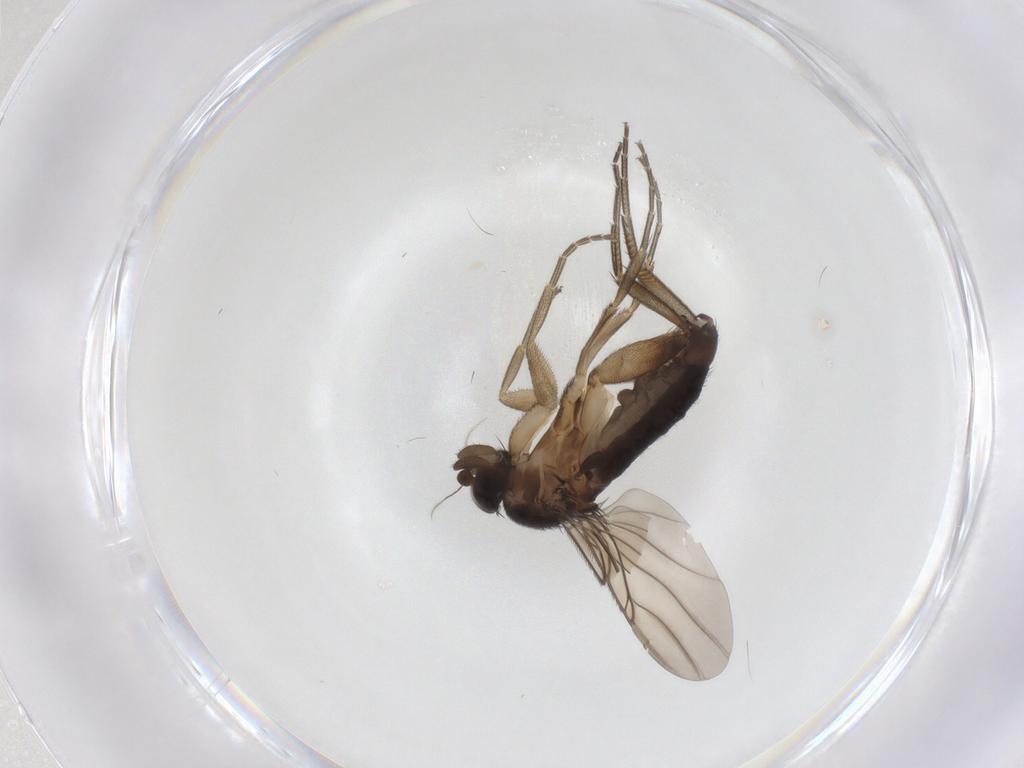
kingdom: Animalia
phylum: Arthropoda
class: Insecta
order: Diptera
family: Phoridae
